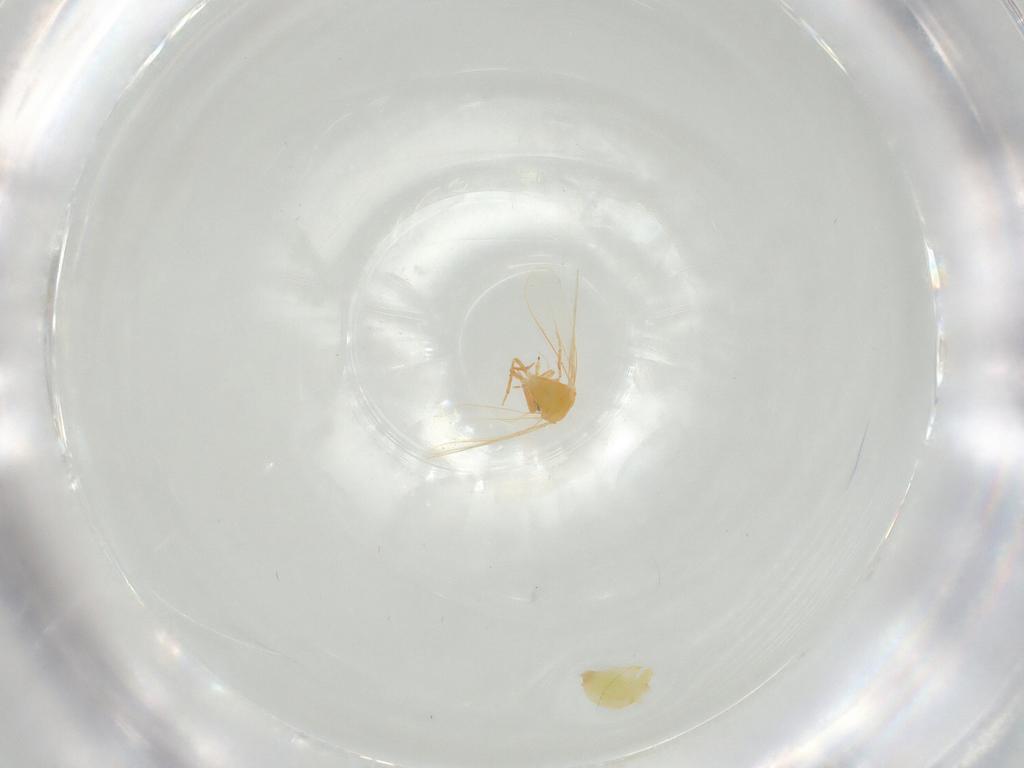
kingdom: Animalia
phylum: Arthropoda
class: Insecta
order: Hemiptera
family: Aleyrodidae
